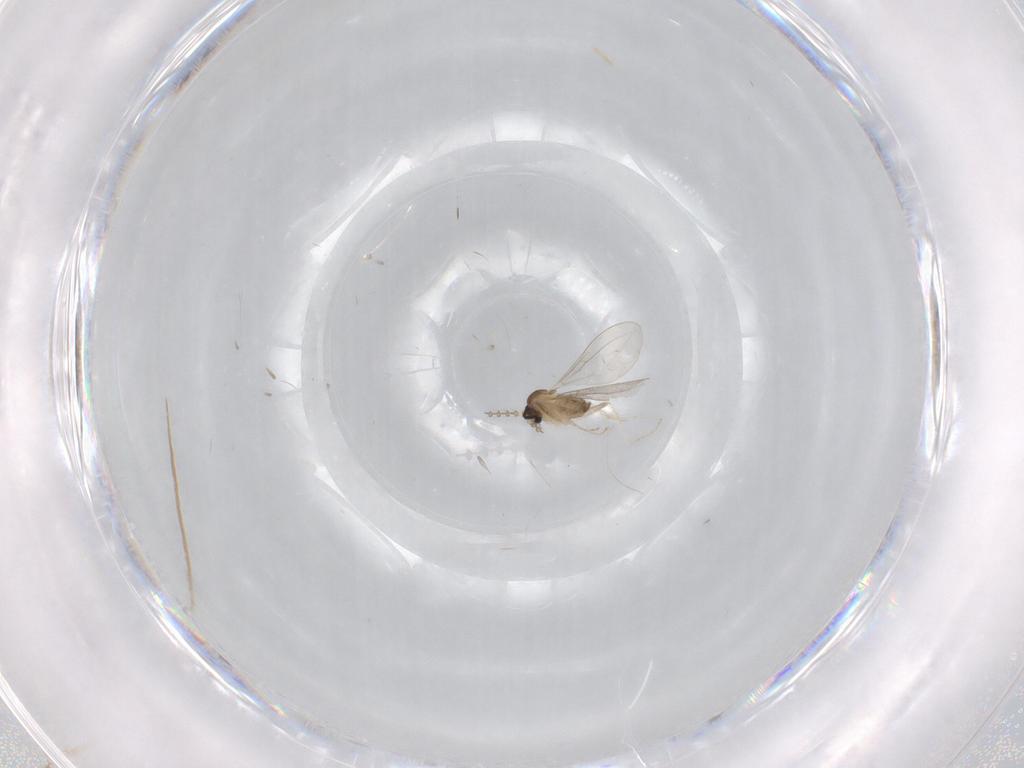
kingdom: Animalia
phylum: Arthropoda
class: Insecta
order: Diptera
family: Cecidomyiidae
